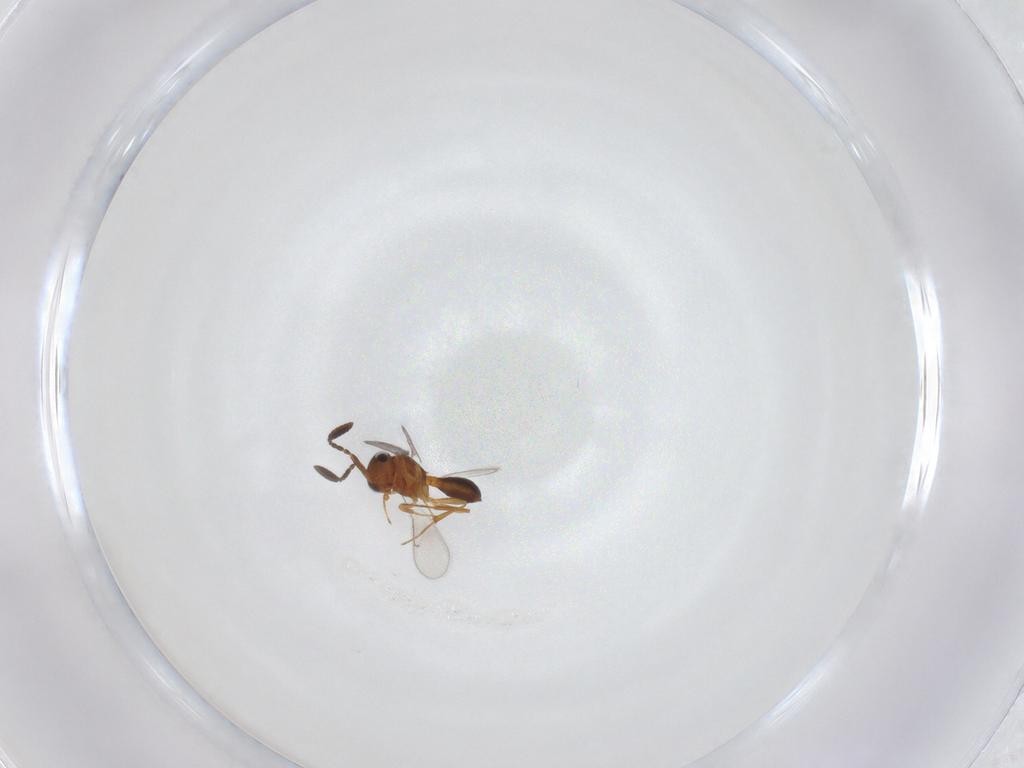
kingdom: Animalia
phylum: Arthropoda
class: Insecta
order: Hymenoptera
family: Scelionidae
